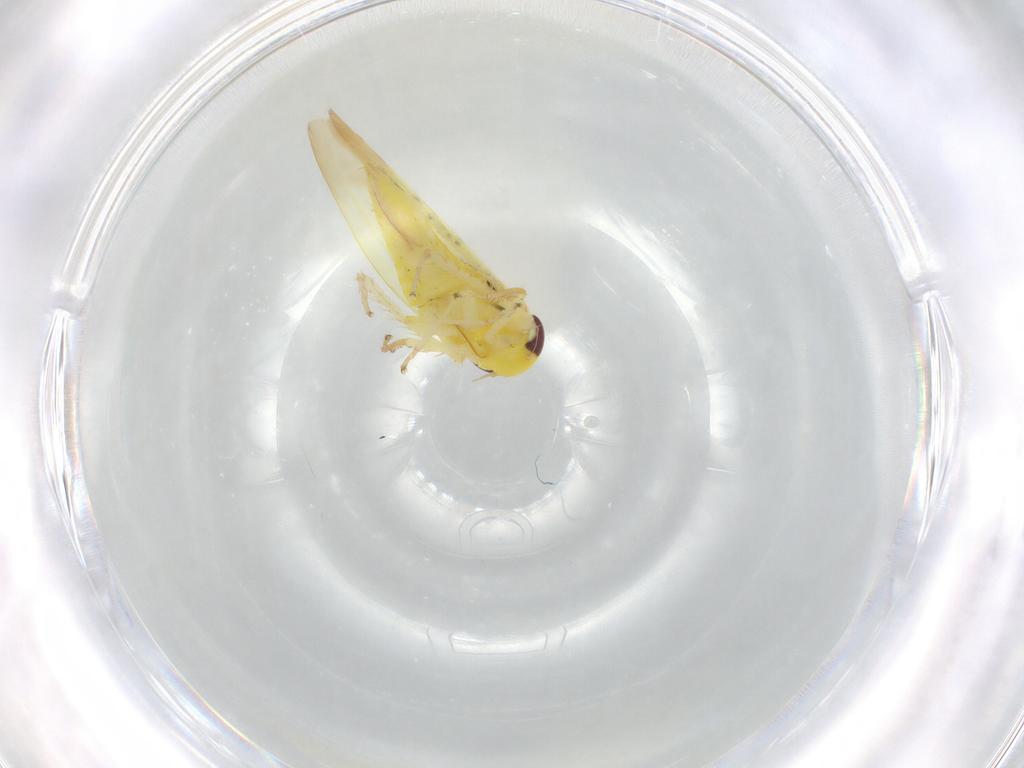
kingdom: Animalia
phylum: Arthropoda
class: Insecta
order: Hemiptera
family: Cicadellidae
